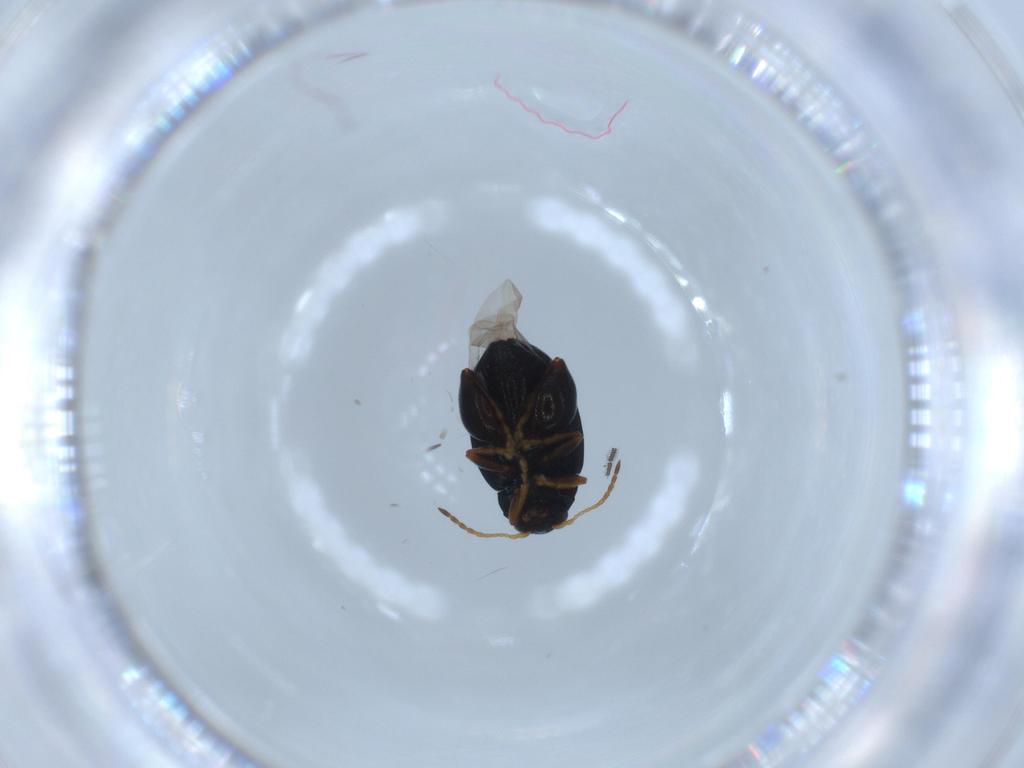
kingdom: Animalia
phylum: Arthropoda
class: Insecta
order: Coleoptera
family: Chrysomelidae
